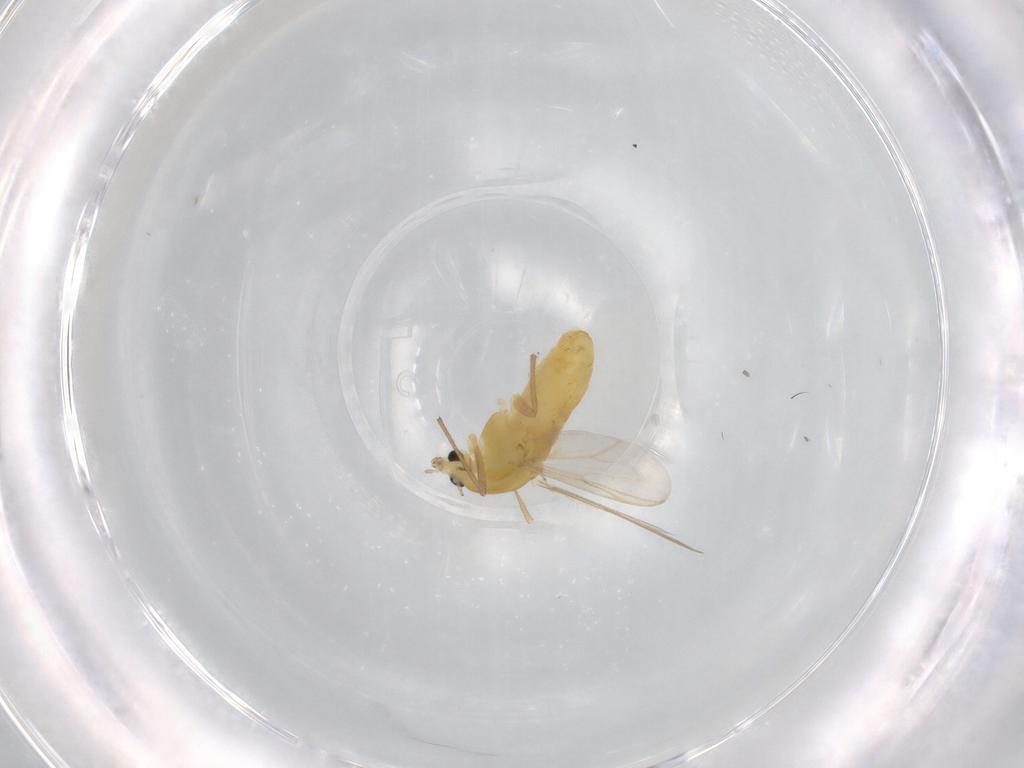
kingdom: Animalia
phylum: Arthropoda
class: Insecta
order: Diptera
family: Chironomidae
